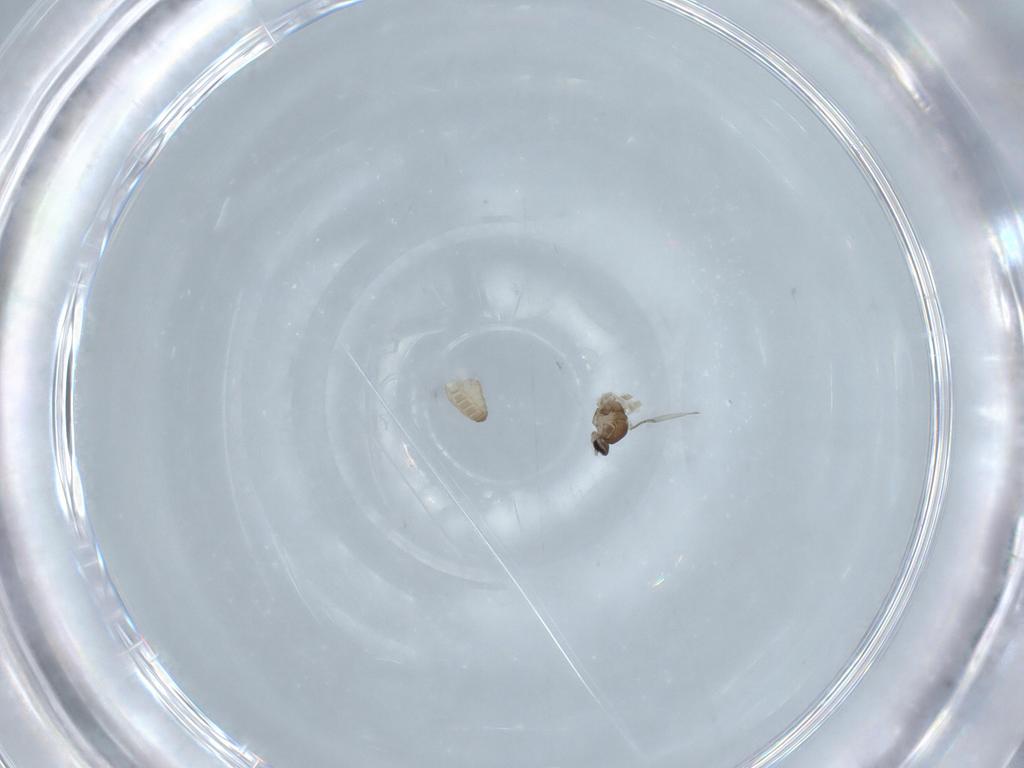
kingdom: Animalia
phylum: Arthropoda
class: Insecta
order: Diptera
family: Cecidomyiidae
